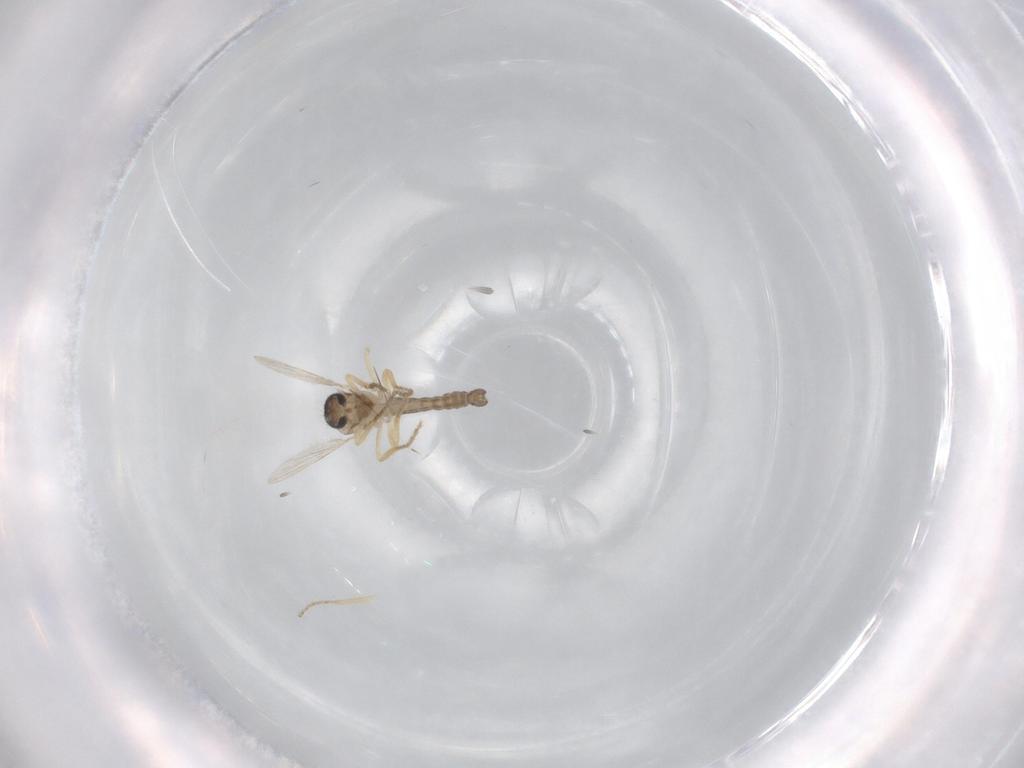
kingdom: Animalia
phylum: Arthropoda
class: Insecta
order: Diptera
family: Ceratopogonidae
